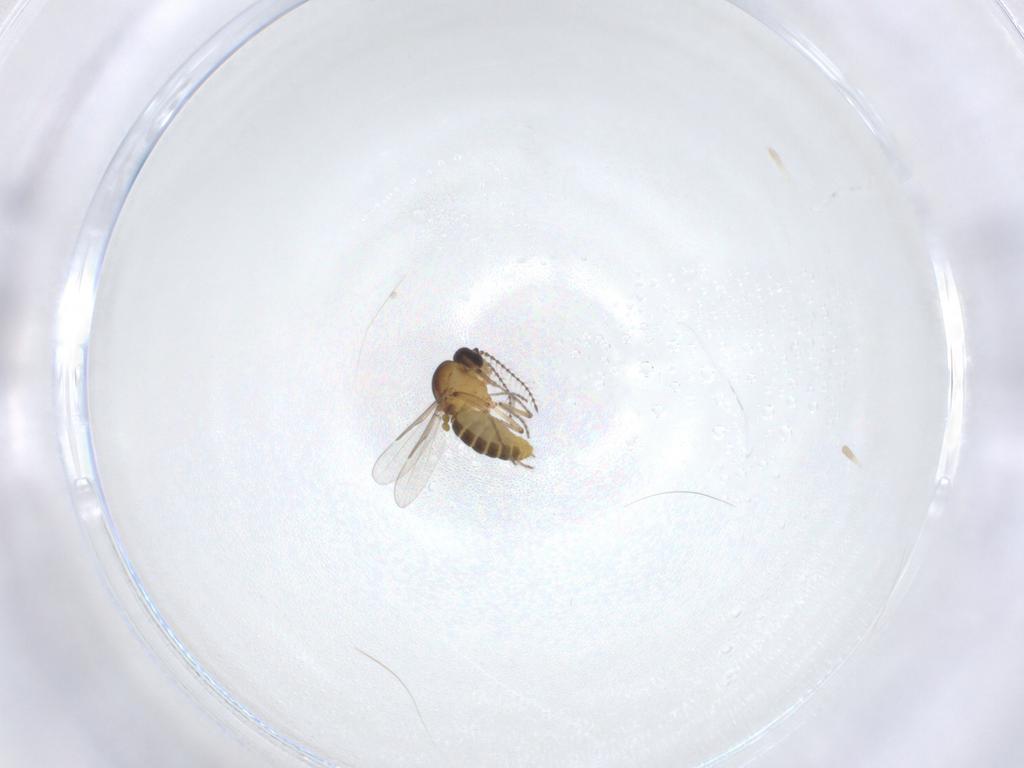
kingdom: Animalia
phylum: Arthropoda
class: Insecta
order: Diptera
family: Ceratopogonidae
